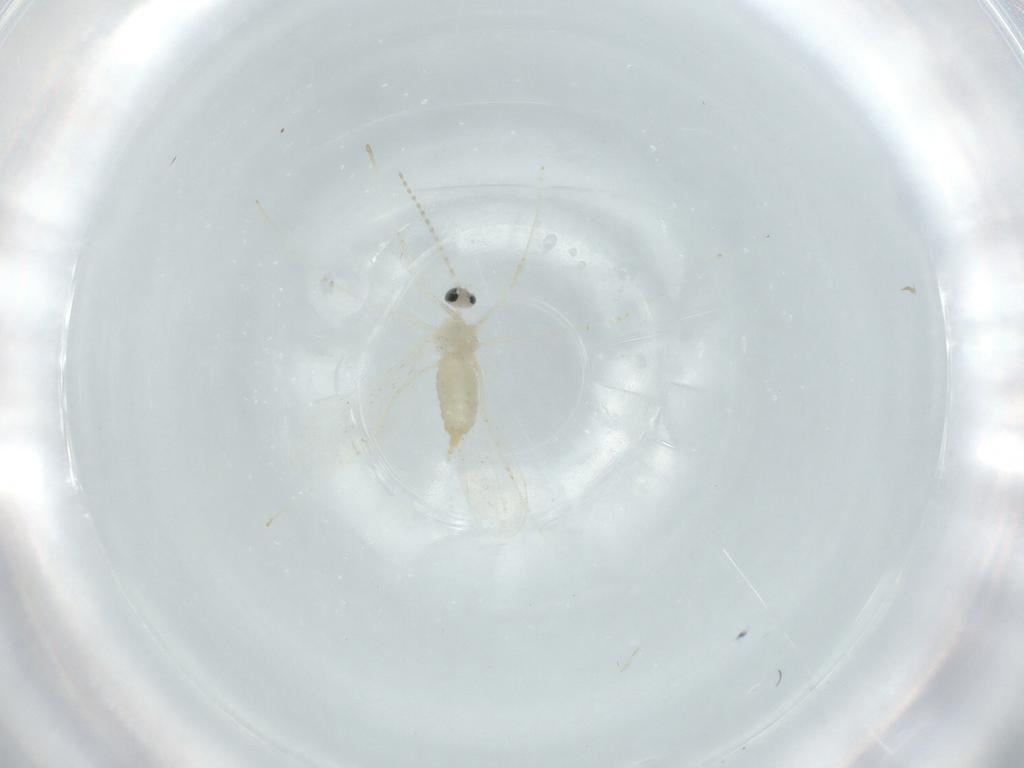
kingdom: Animalia
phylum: Arthropoda
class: Insecta
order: Diptera
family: Cecidomyiidae
